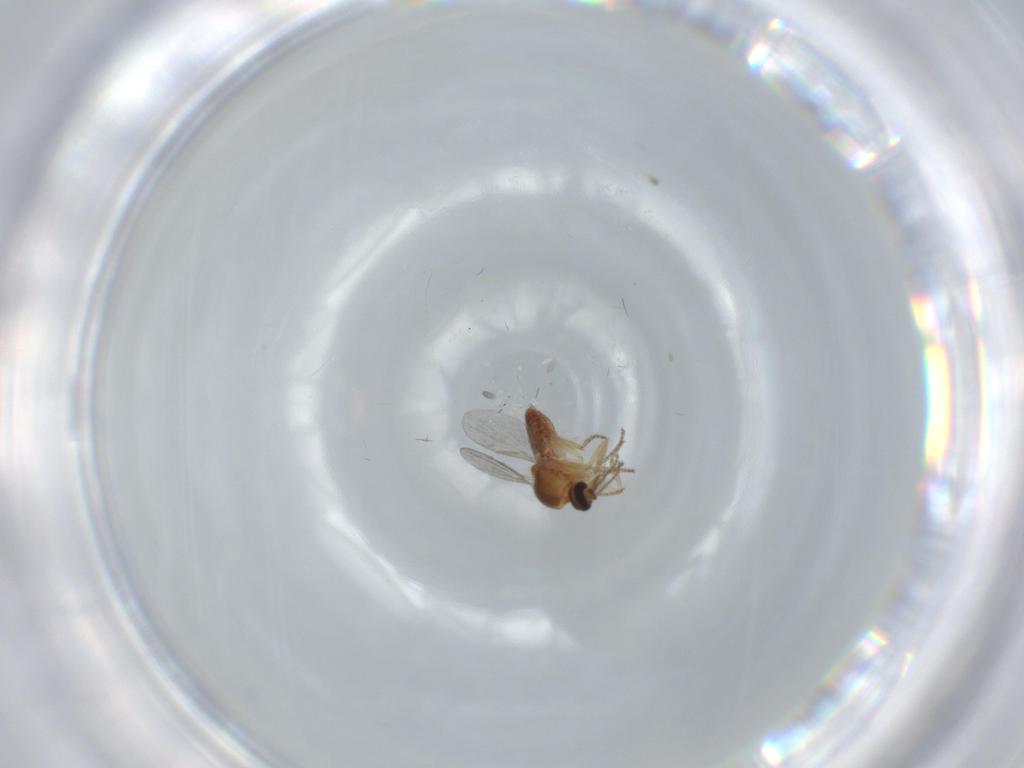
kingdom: Animalia
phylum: Arthropoda
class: Insecta
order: Diptera
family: Ceratopogonidae
